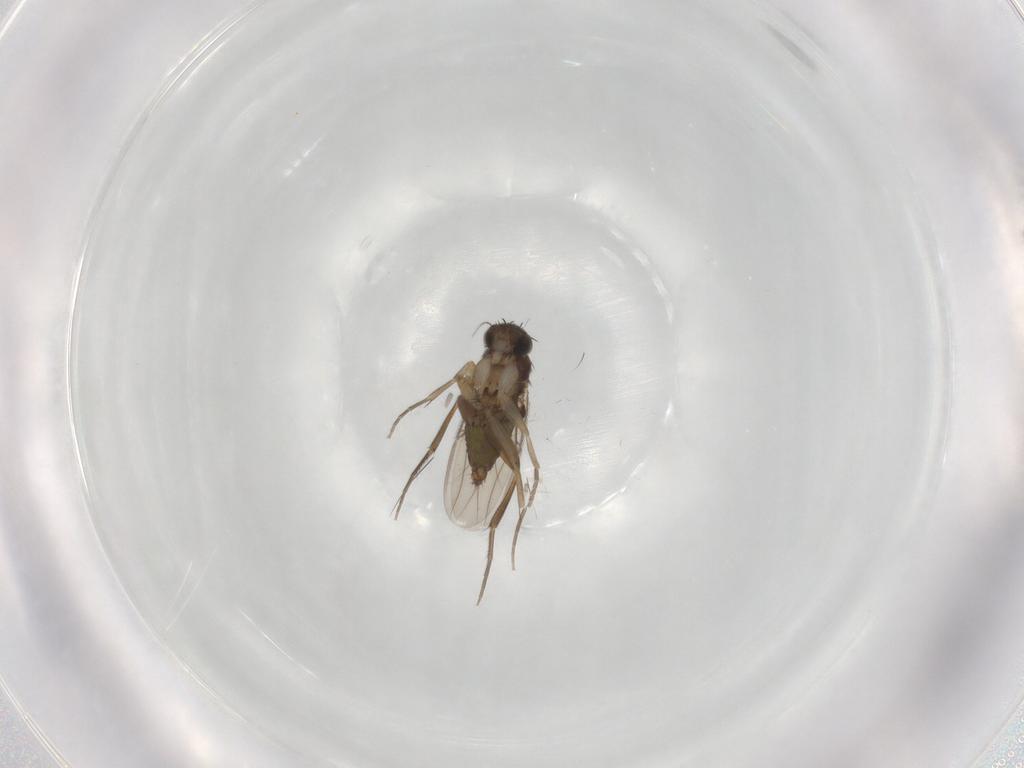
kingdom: Animalia
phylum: Arthropoda
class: Insecta
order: Diptera
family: Phoridae
